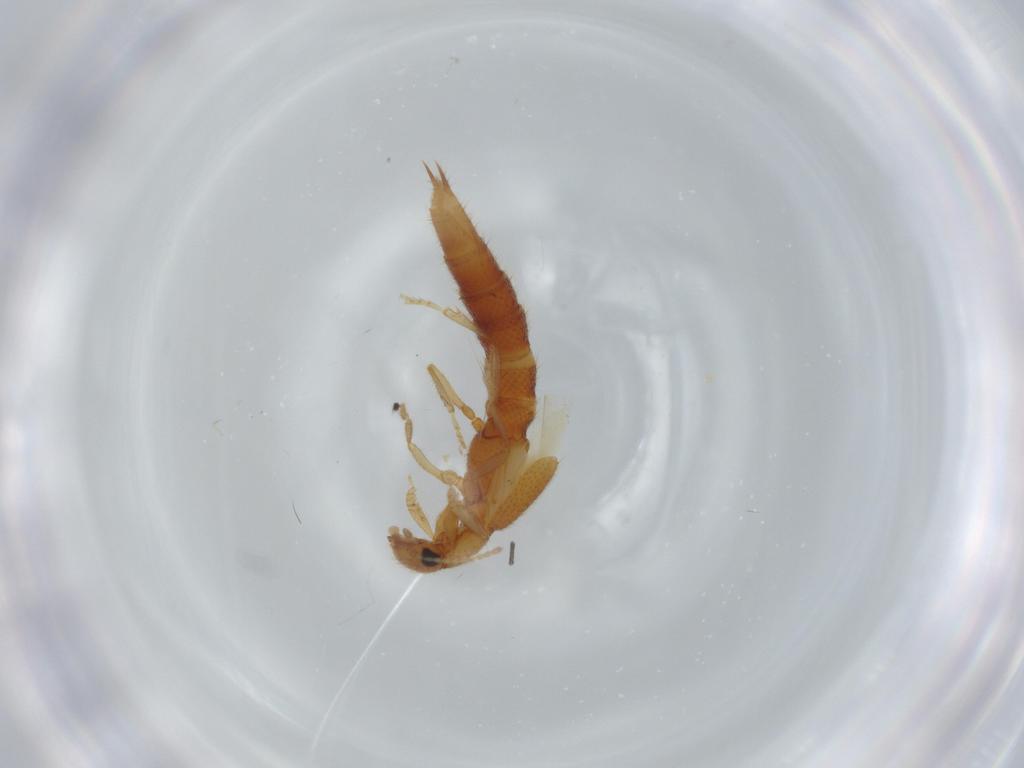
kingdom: Animalia
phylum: Arthropoda
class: Insecta
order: Coleoptera
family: Staphylinidae
